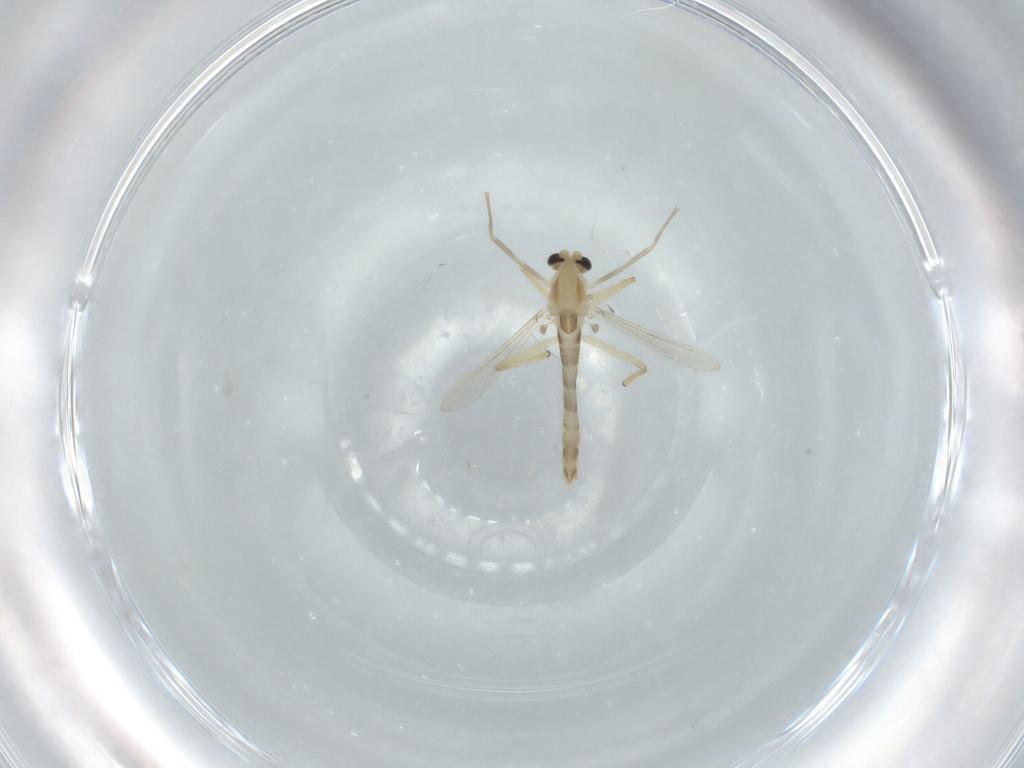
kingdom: Animalia
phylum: Arthropoda
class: Insecta
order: Diptera
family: Chironomidae
